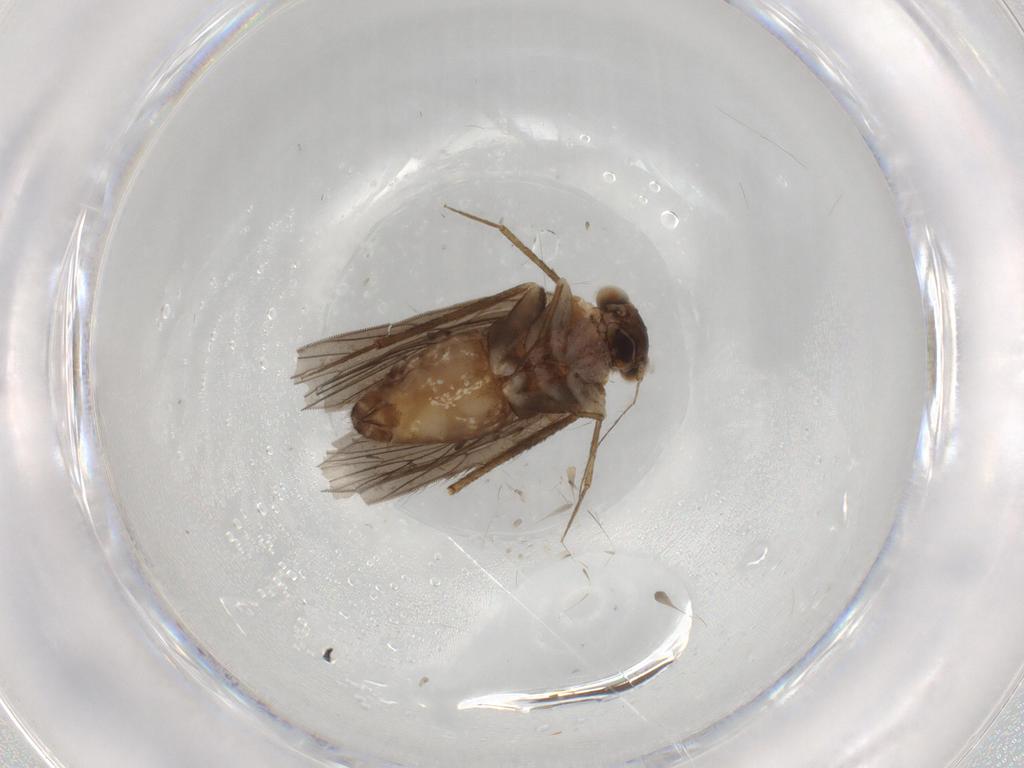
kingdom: Animalia
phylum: Arthropoda
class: Insecta
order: Psocodea
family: Lepidopsocidae
